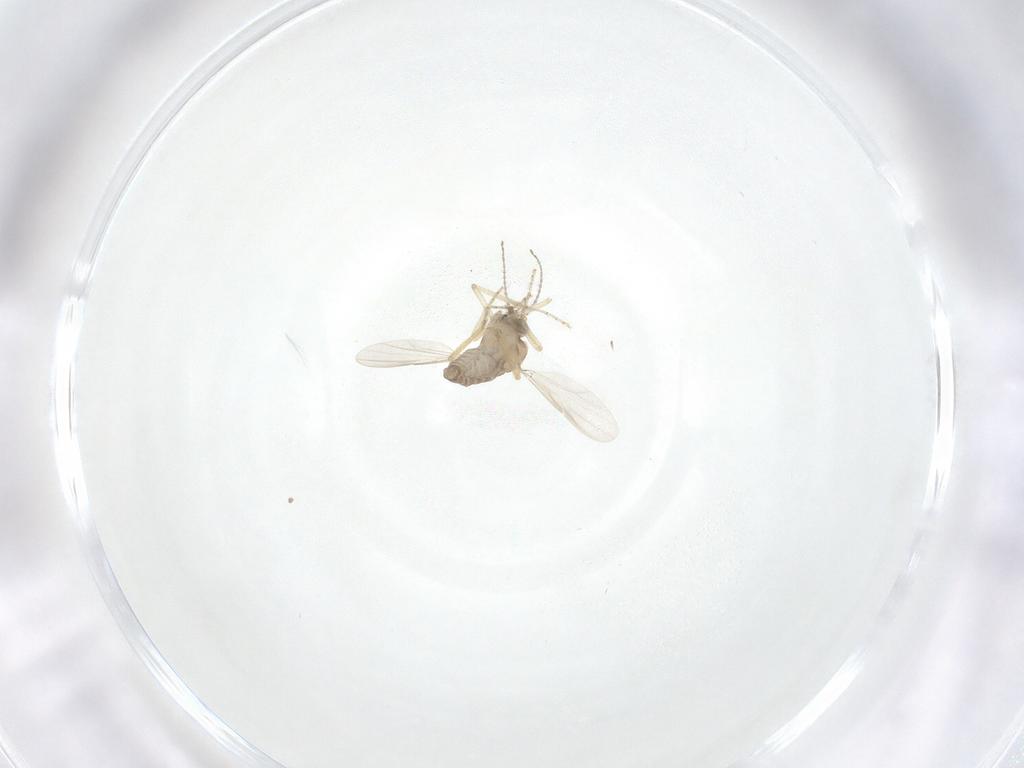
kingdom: Animalia
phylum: Arthropoda
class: Insecta
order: Diptera
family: Ceratopogonidae
